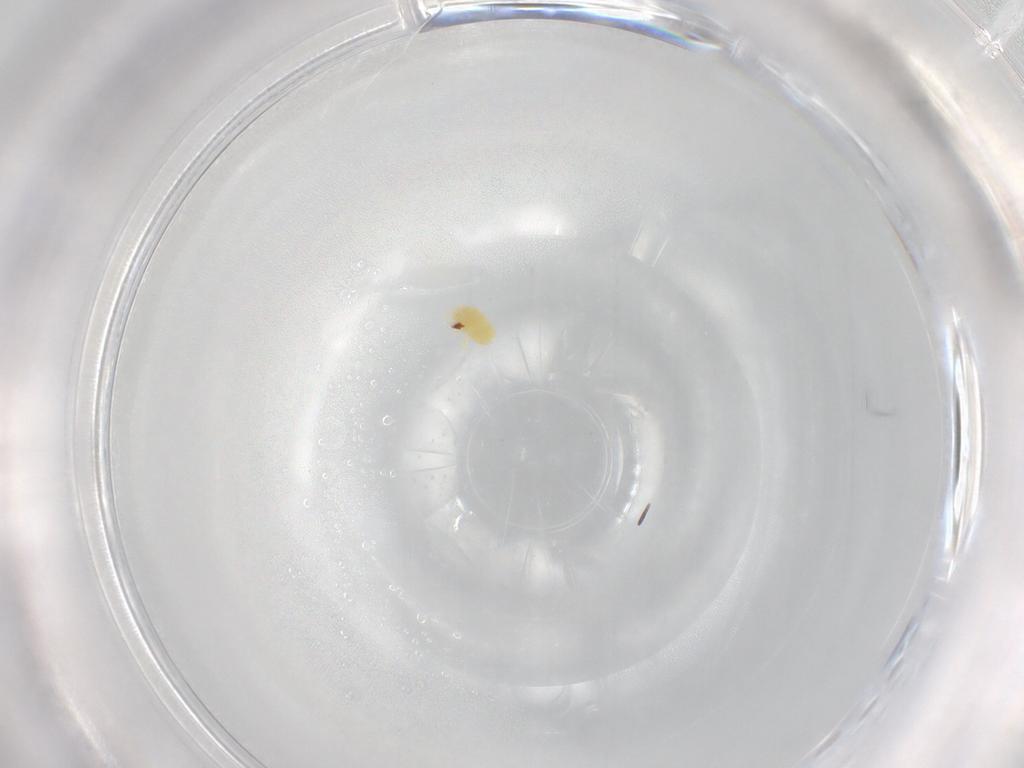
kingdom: Animalia
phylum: Arthropoda
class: Arachnida
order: Trombidiformes
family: Eupodidae
